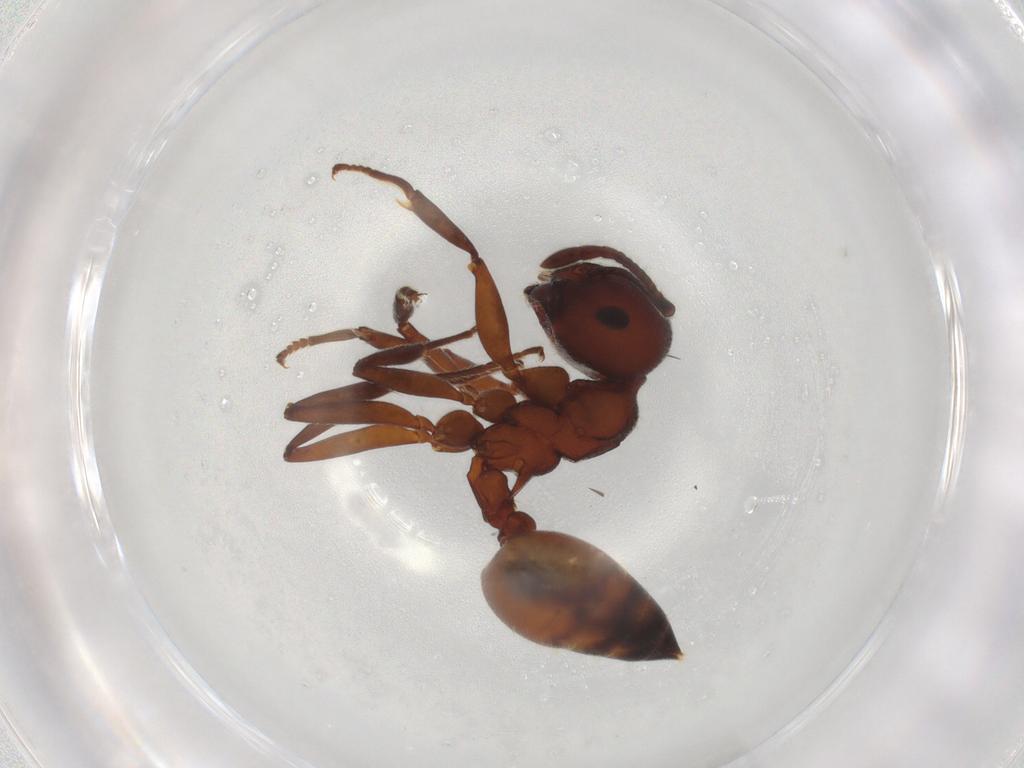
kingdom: Animalia
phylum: Arthropoda
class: Insecta
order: Hymenoptera
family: Formicidae
